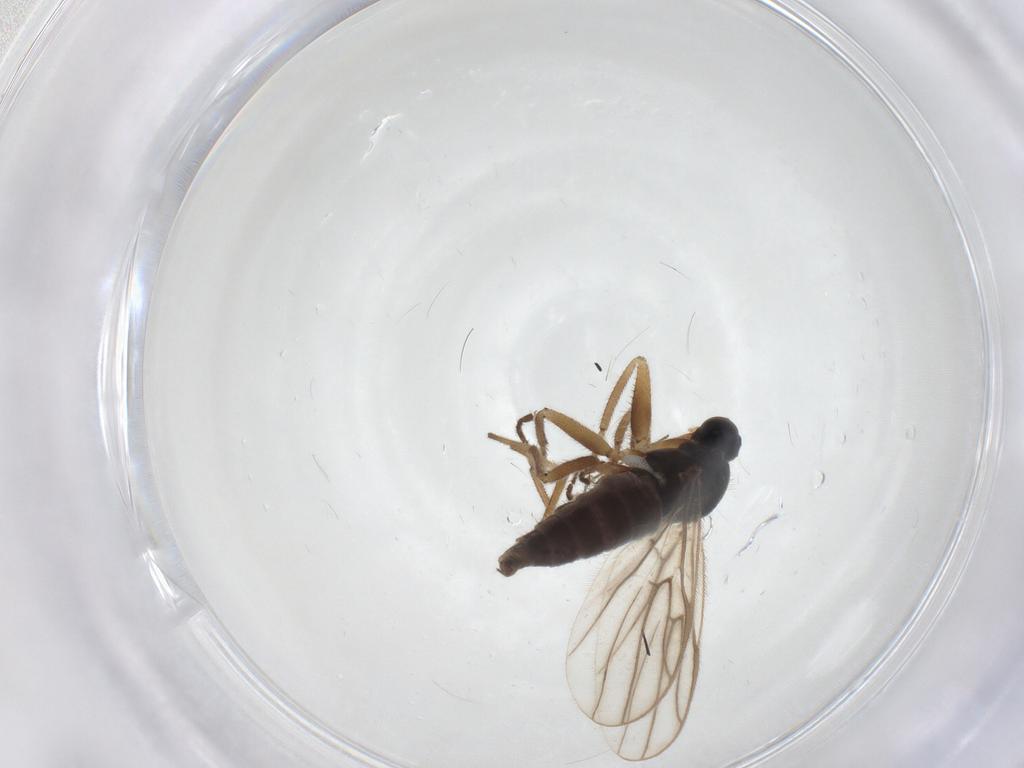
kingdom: Animalia
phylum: Arthropoda
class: Insecta
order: Diptera
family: Hybotidae
